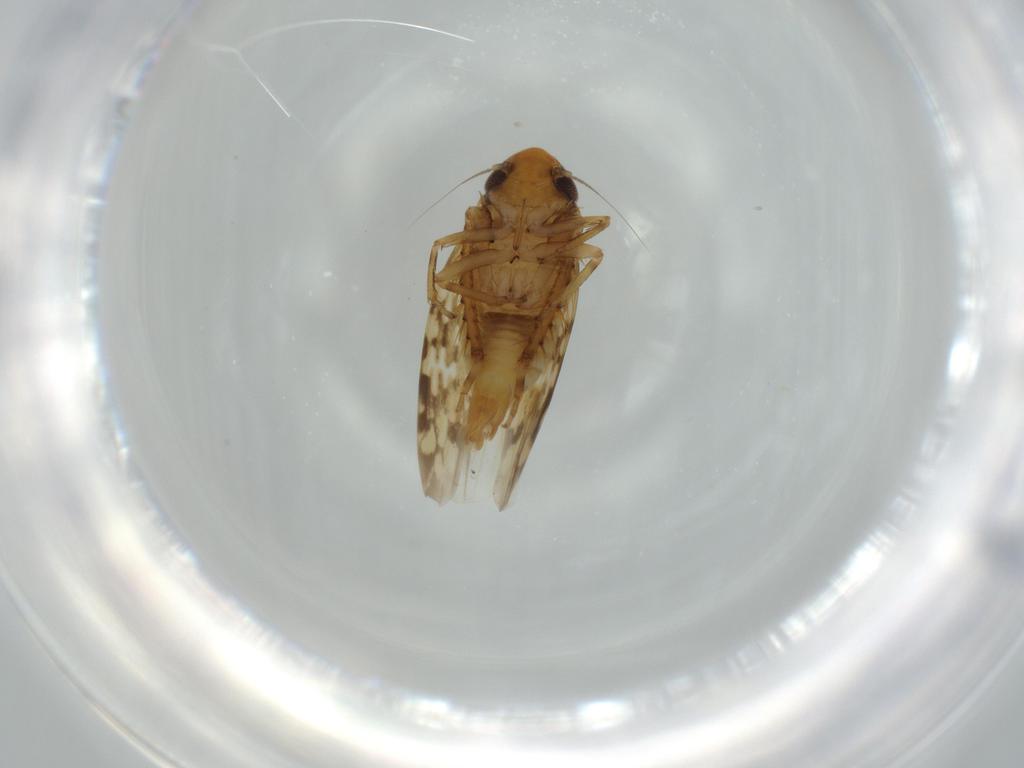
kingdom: Animalia
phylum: Arthropoda
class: Insecta
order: Hemiptera
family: Cicadellidae
